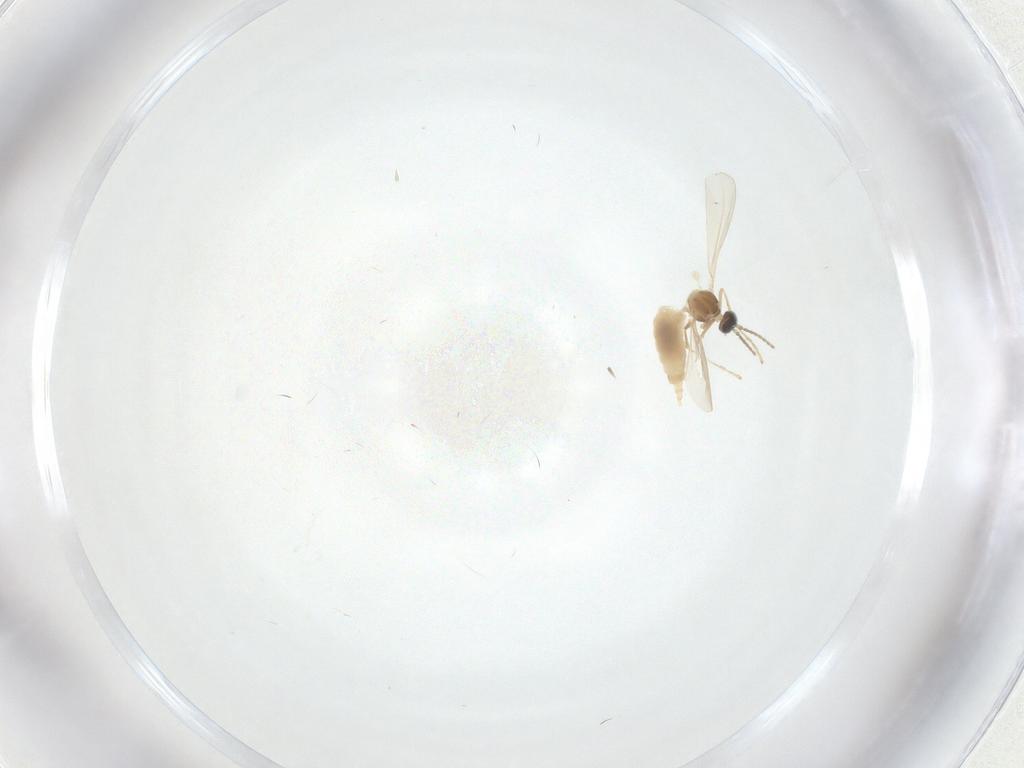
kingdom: Animalia
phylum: Arthropoda
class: Insecta
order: Diptera
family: Cecidomyiidae
